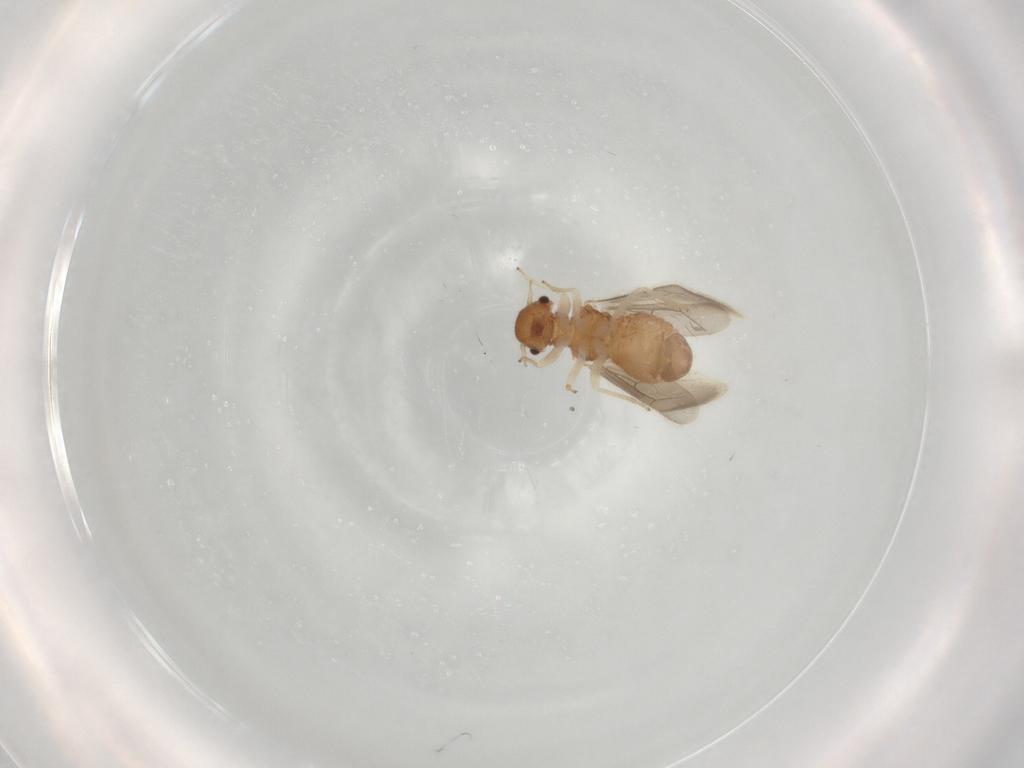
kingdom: Animalia
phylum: Arthropoda
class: Insecta
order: Psocodea
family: Archipsocidae
